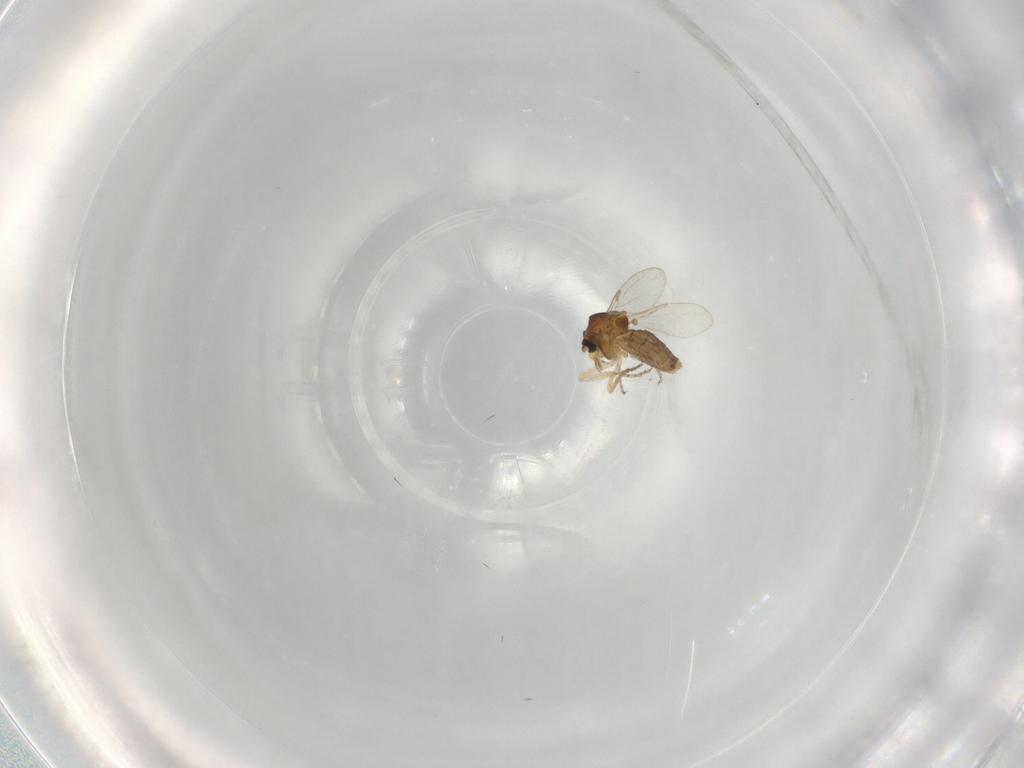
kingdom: Animalia
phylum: Arthropoda
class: Insecta
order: Diptera
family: Ceratopogonidae
